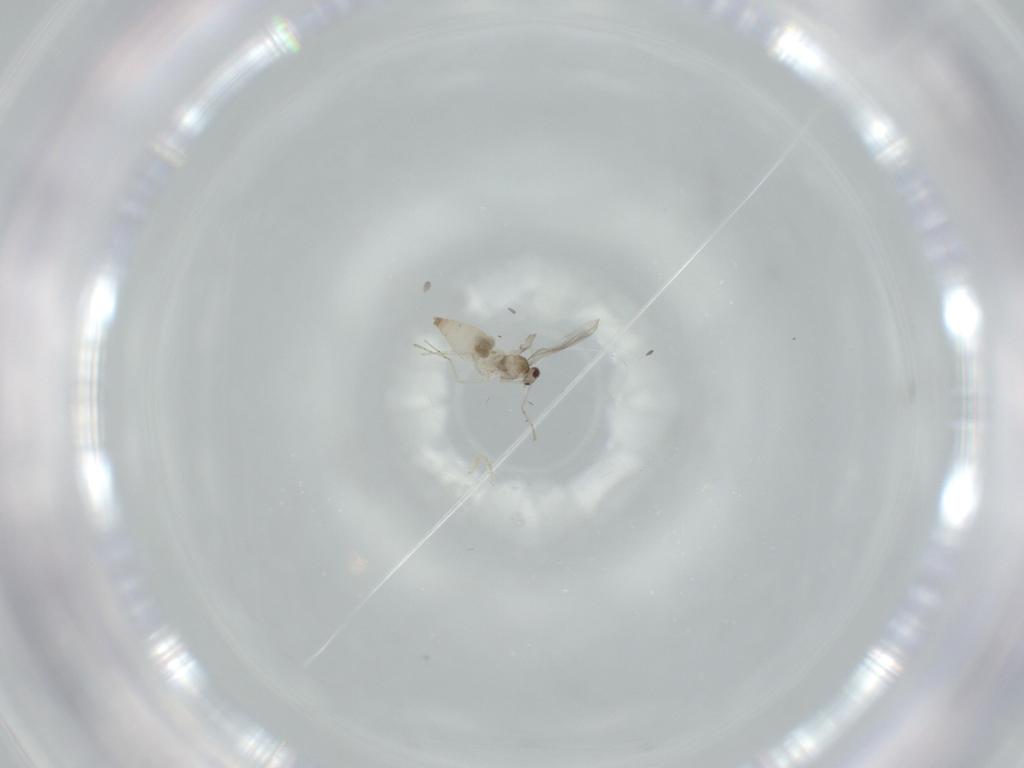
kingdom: Animalia
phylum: Arthropoda
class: Insecta
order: Diptera
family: Cecidomyiidae
